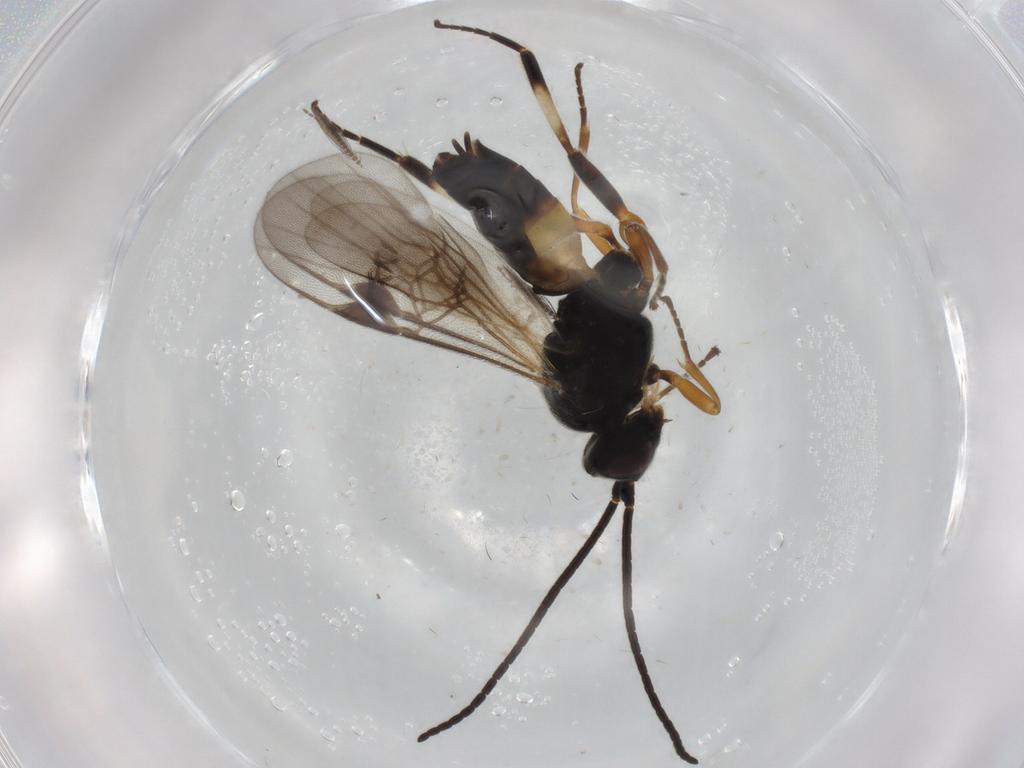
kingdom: Animalia
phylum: Arthropoda
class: Insecta
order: Hymenoptera
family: Braconidae
